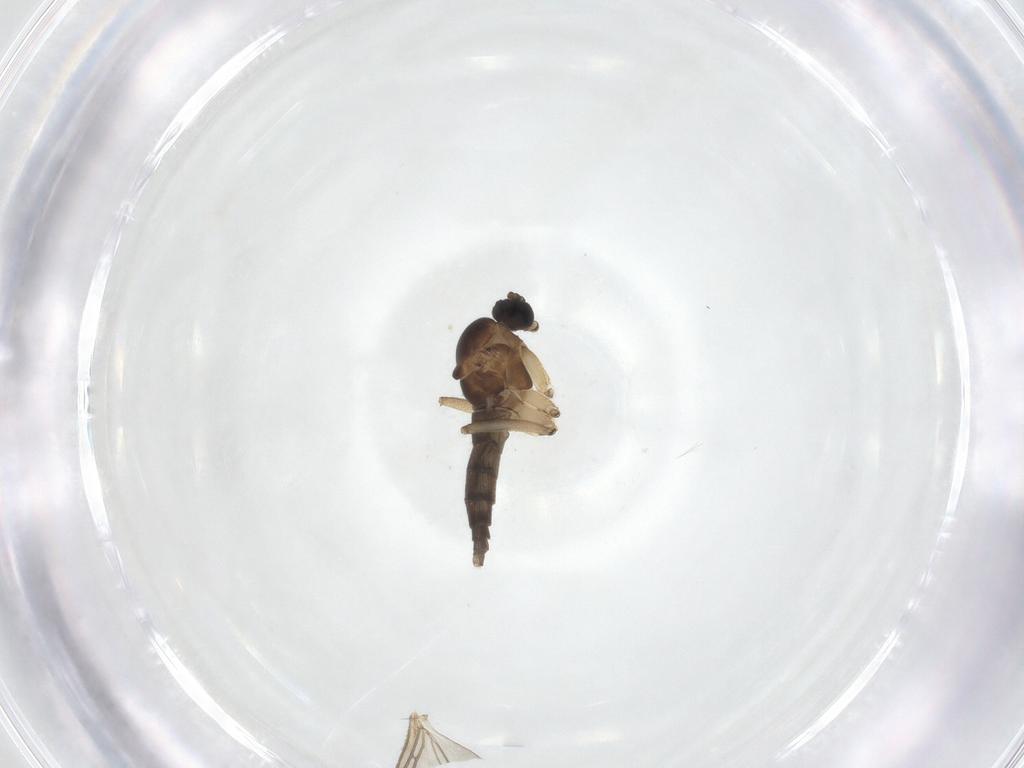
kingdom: Animalia
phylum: Arthropoda
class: Insecta
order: Diptera
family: Sciaridae
